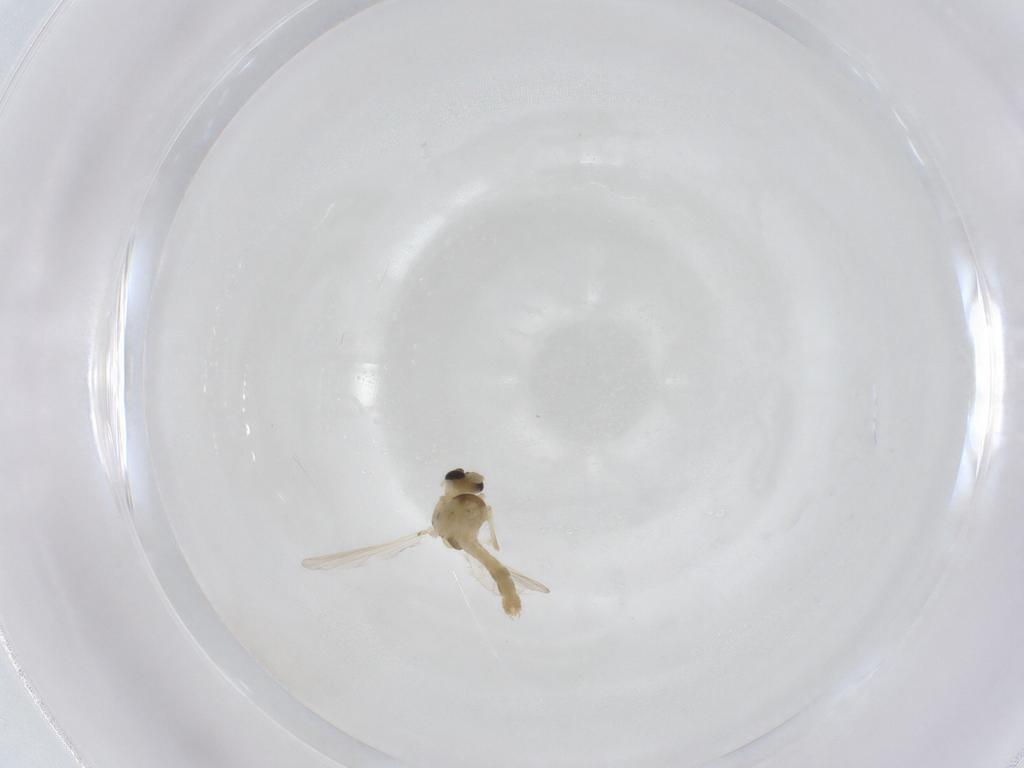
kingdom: Animalia
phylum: Arthropoda
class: Insecta
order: Diptera
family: Chironomidae
